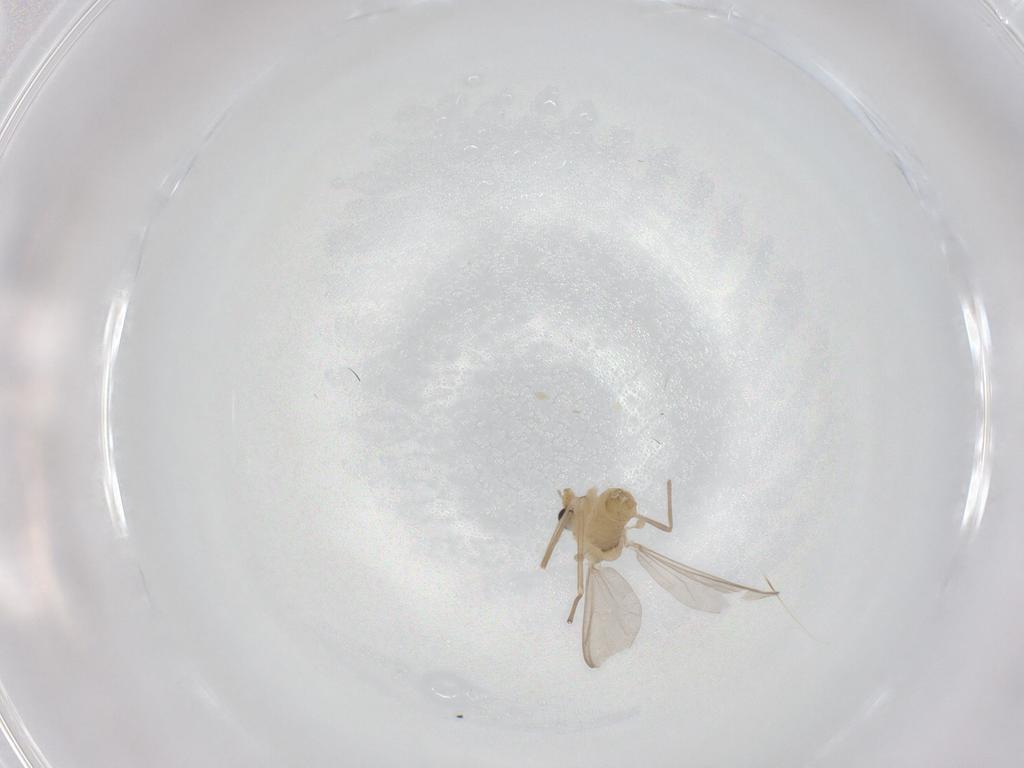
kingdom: Animalia
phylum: Arthropoda
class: Insecta
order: Diptera
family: Chironomidae
